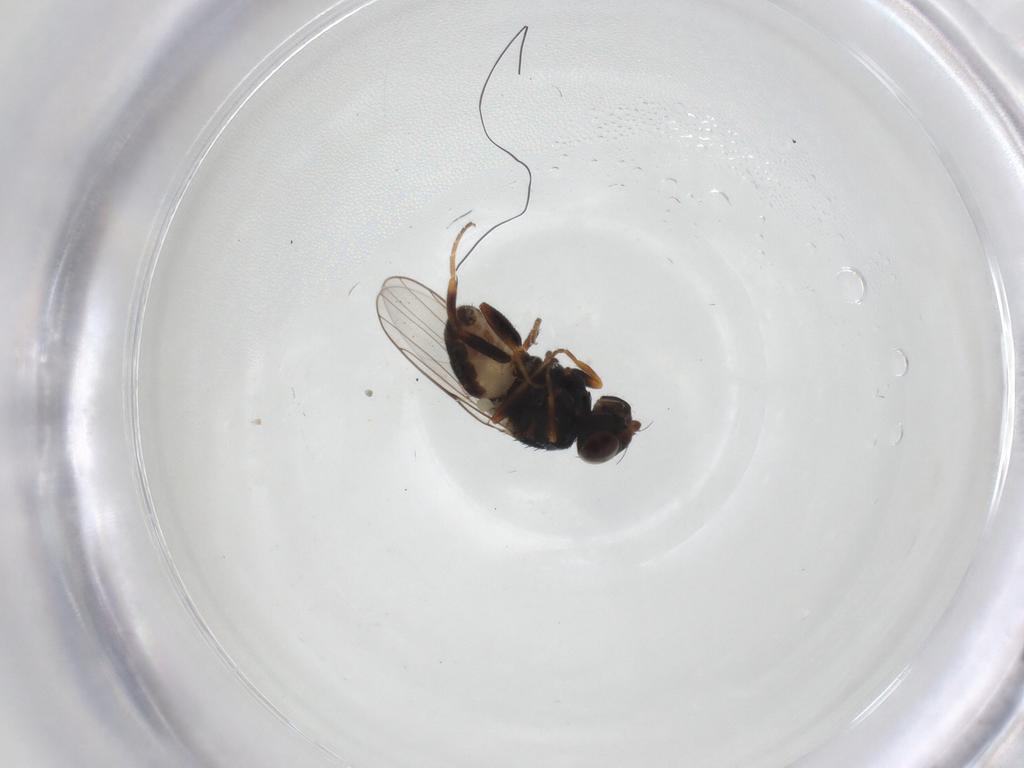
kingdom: Animalia
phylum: Arthropoda
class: Insecta
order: Diptera
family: Chloropidae
